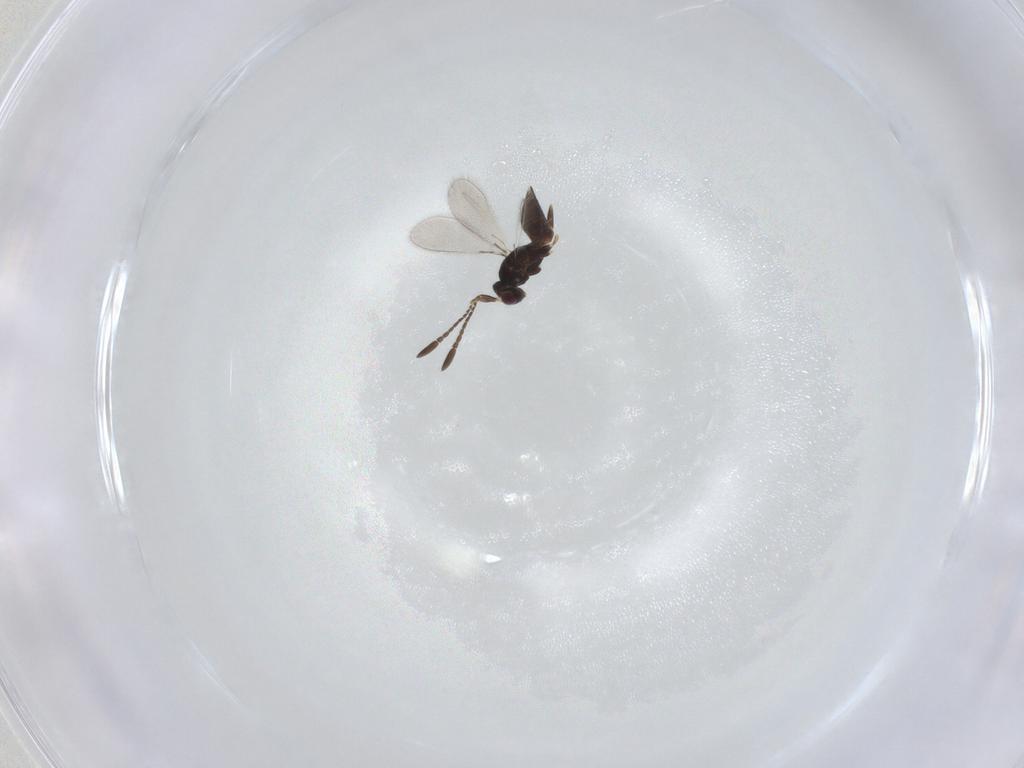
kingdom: Animalia
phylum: Arthropoda
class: Insecta
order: Hymenoptera
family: Mymaridae
